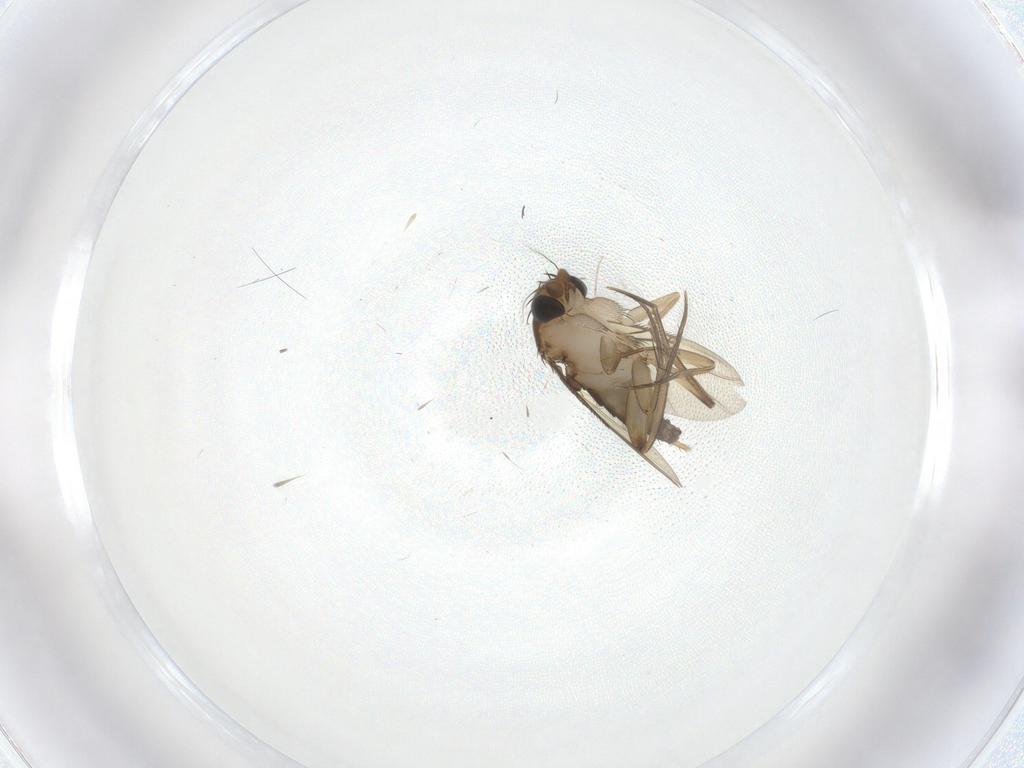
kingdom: Animalia
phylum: Arthropoda
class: Insecta
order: Diptera
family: Phoridae
